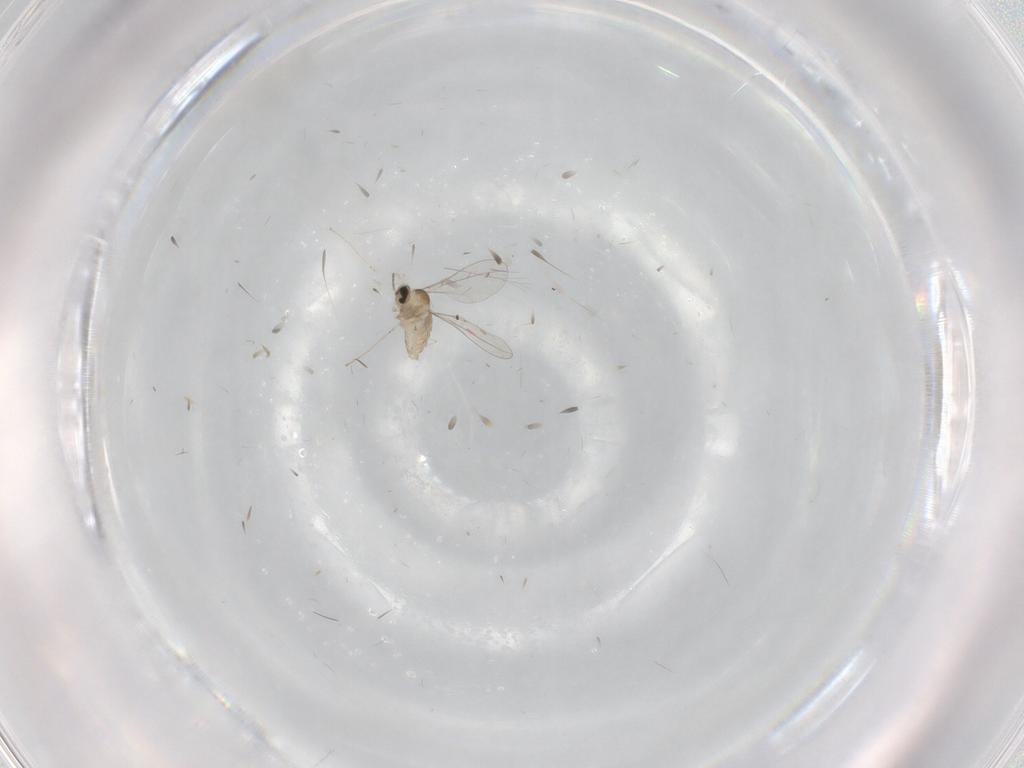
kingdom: Animalia
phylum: Arthropoda
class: Insecta
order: Diptera
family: Cecidomyiidae
